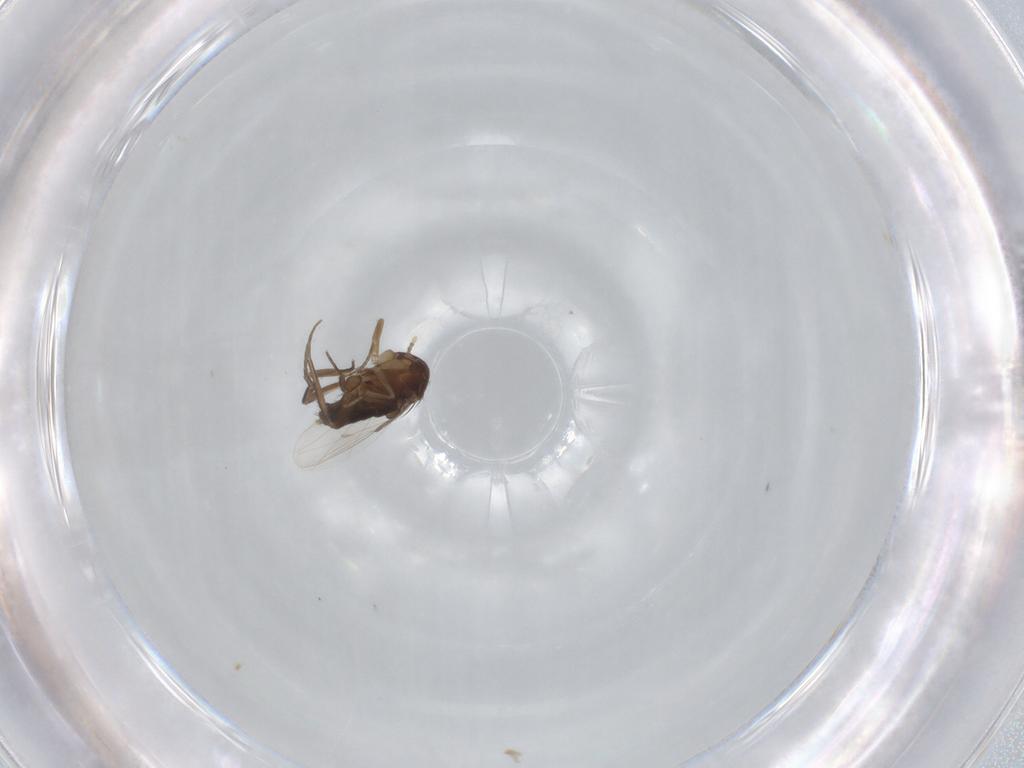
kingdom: Animalia
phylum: Arthropoda
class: Insecta
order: Diptera
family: Phoridae
